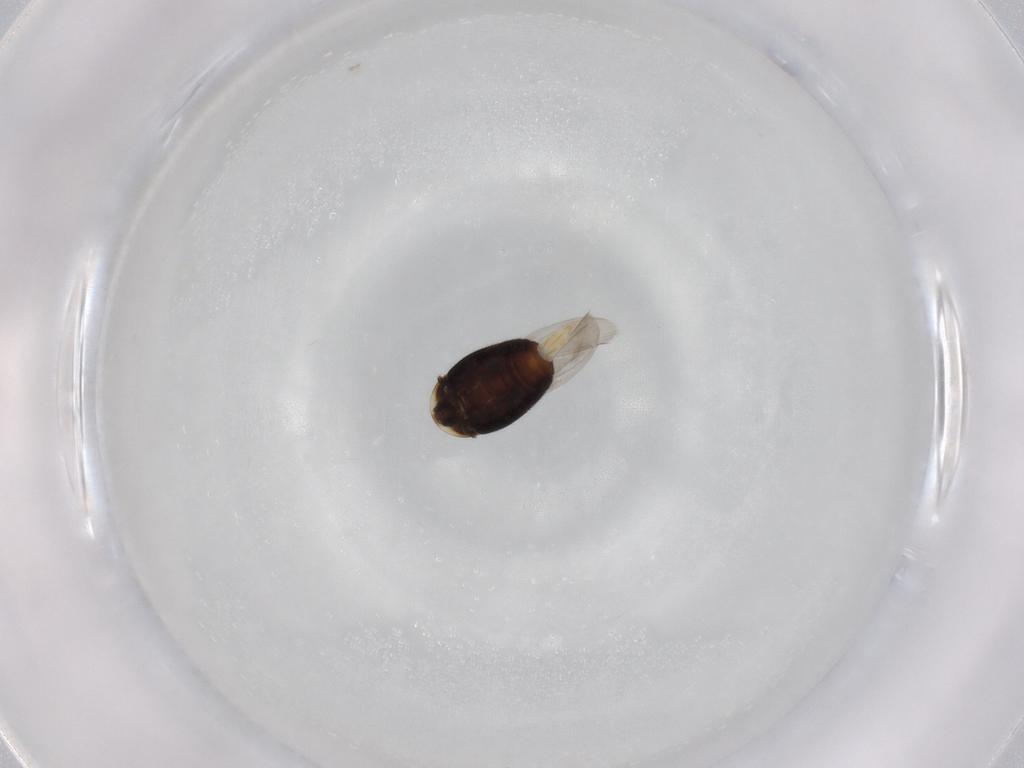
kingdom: Animalia
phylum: Arthropoda
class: Insecta
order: Coleoptera
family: Corylophidae
